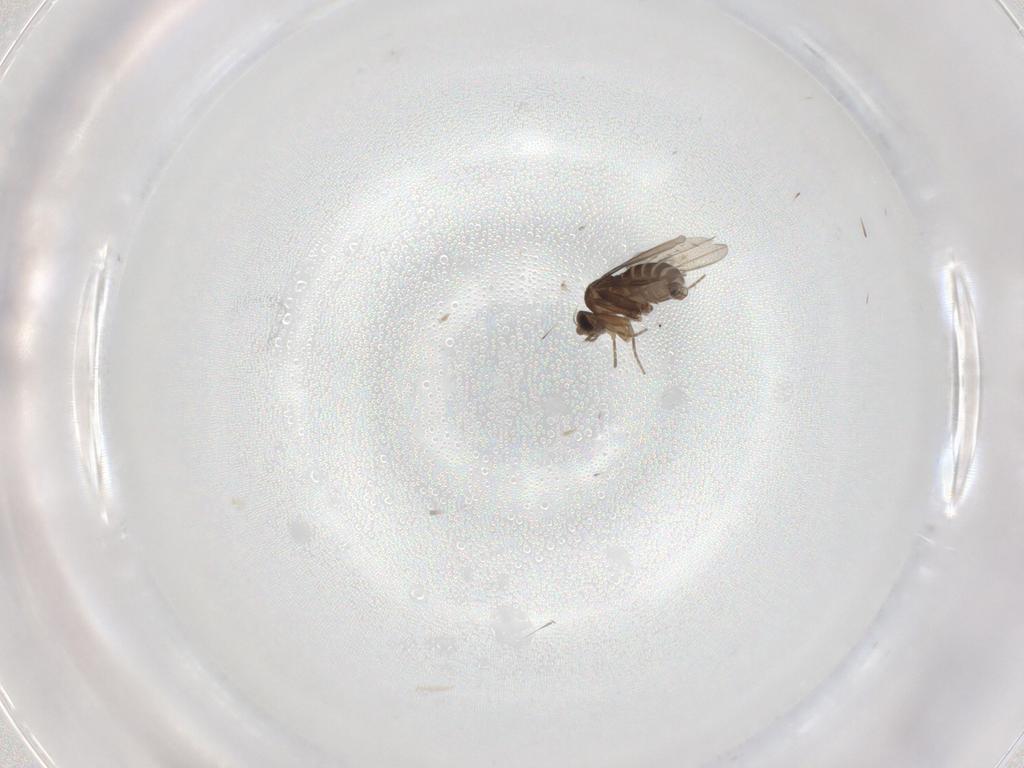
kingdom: Animalia
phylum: Arthropoda
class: Insecta
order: Diptera
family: Phoridae
